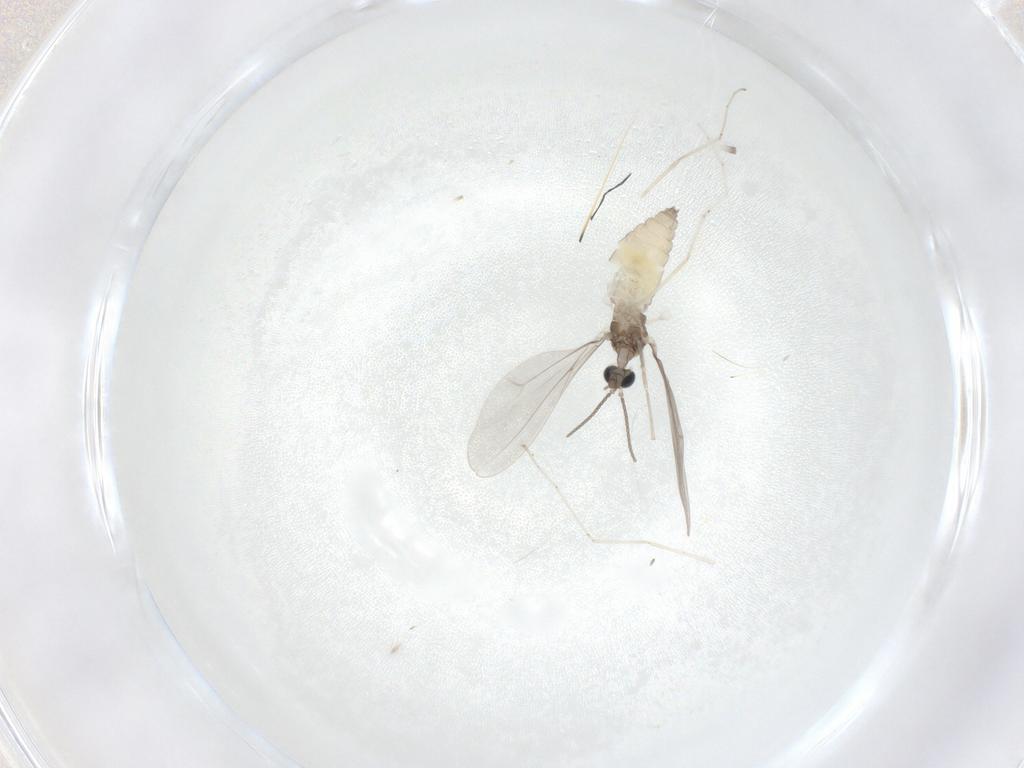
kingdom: Animalia
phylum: Arthropoda
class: Insecta
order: Diptera
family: Cecidomyiidae
